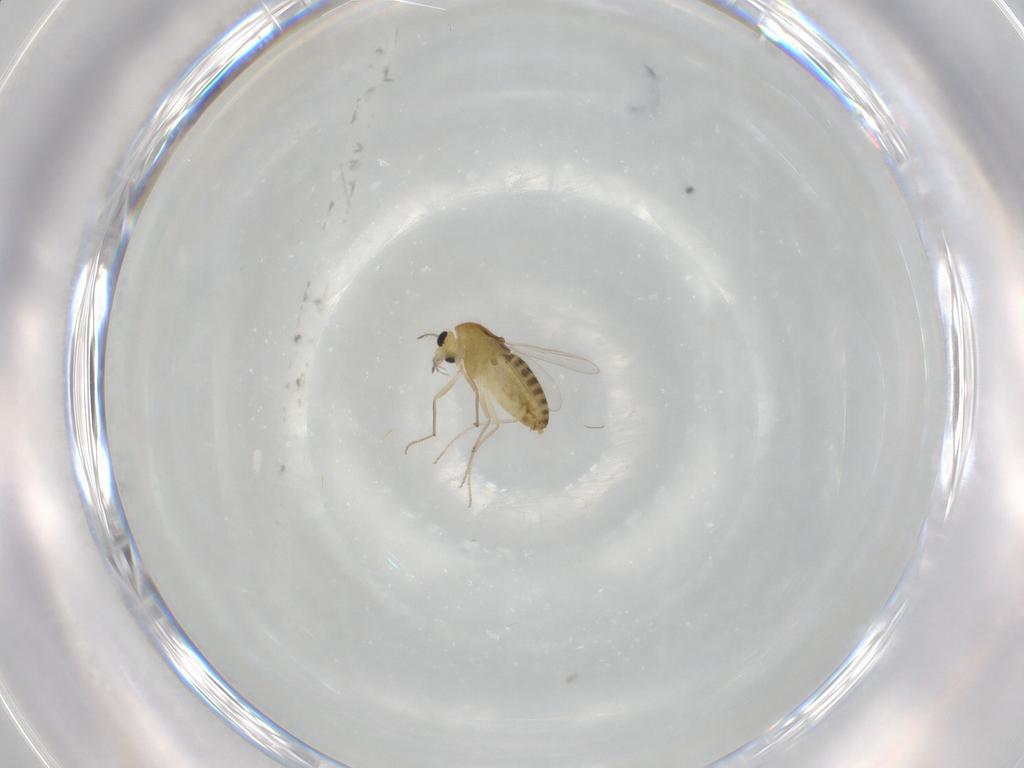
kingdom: Animalia
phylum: Arthropoda
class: Insecta
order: Diptera
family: Chironomidae
